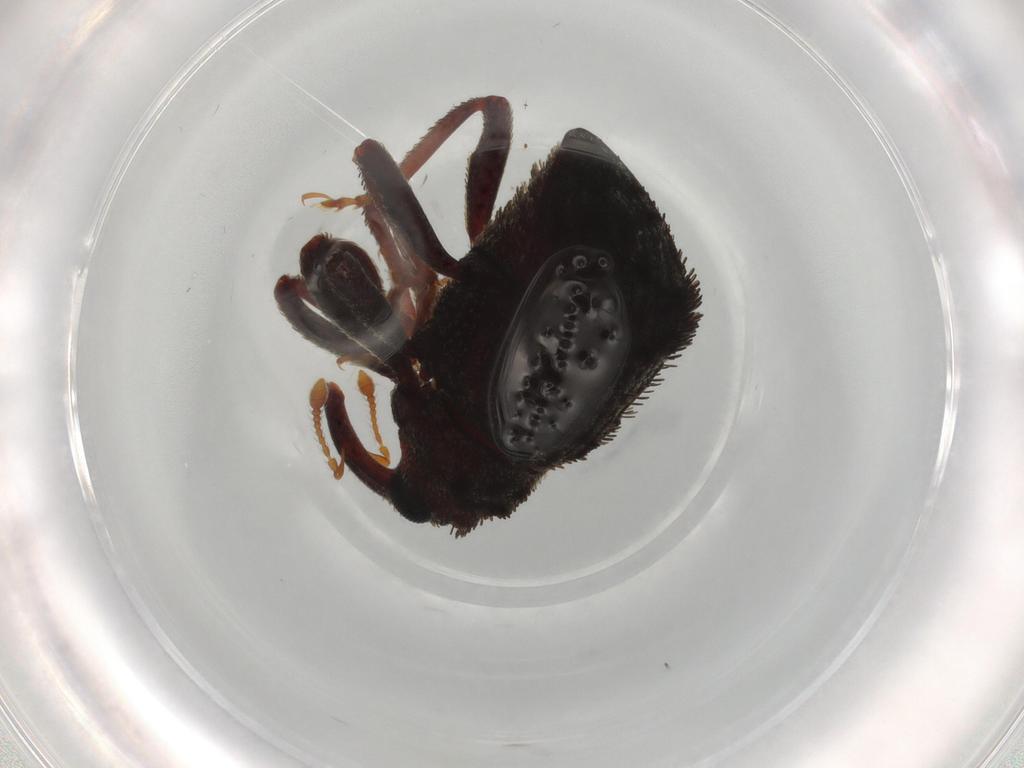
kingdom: Animalia
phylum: Arthropoda
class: Insecta
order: Coleoptera
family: Curculionidae
